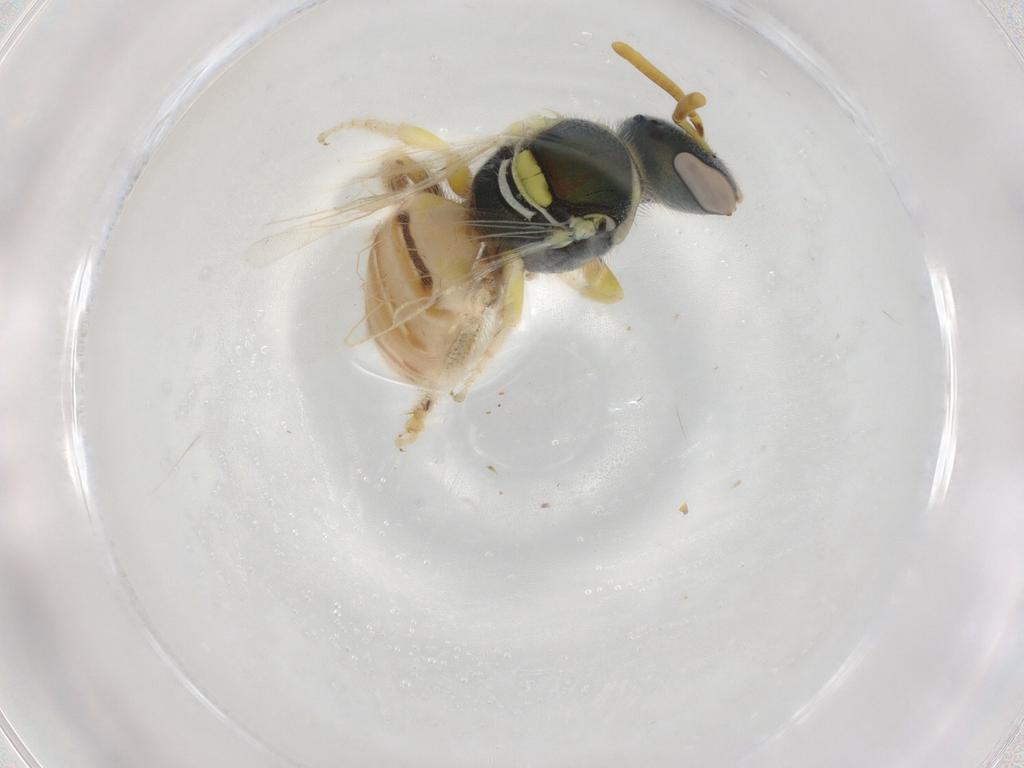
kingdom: Animalia
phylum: Arthropoda
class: Insecta
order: Hymenoptera
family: Halictidae
